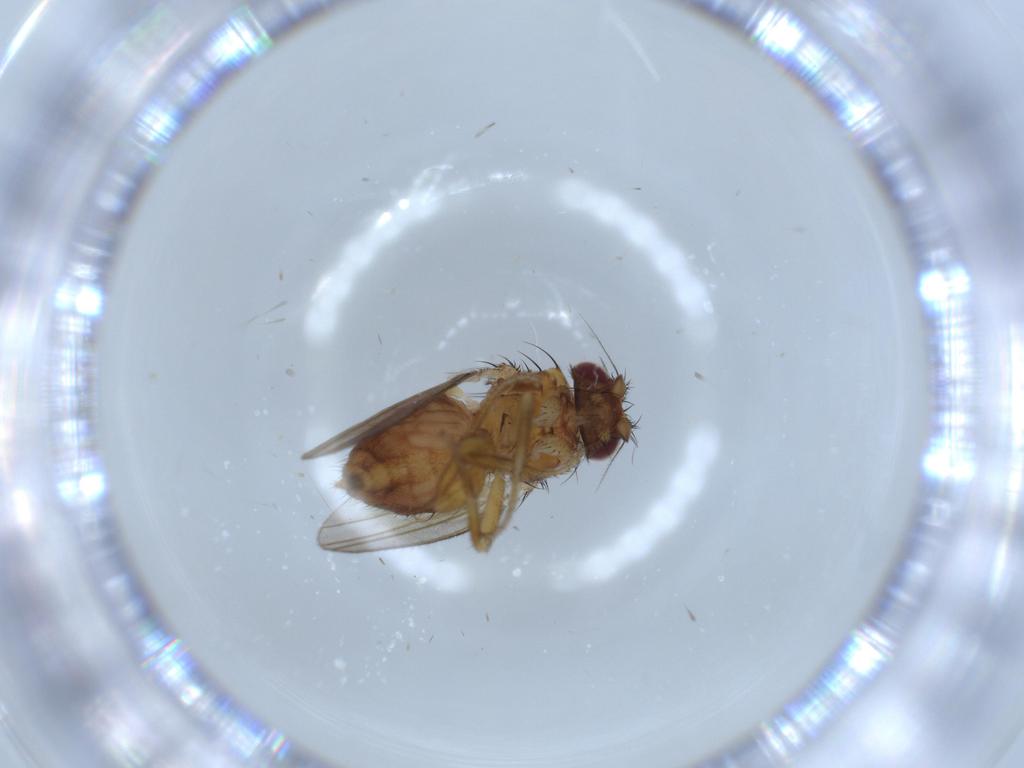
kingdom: Animalia
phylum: Arthropoda
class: Insecta
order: Diptera
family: Milichiidae
